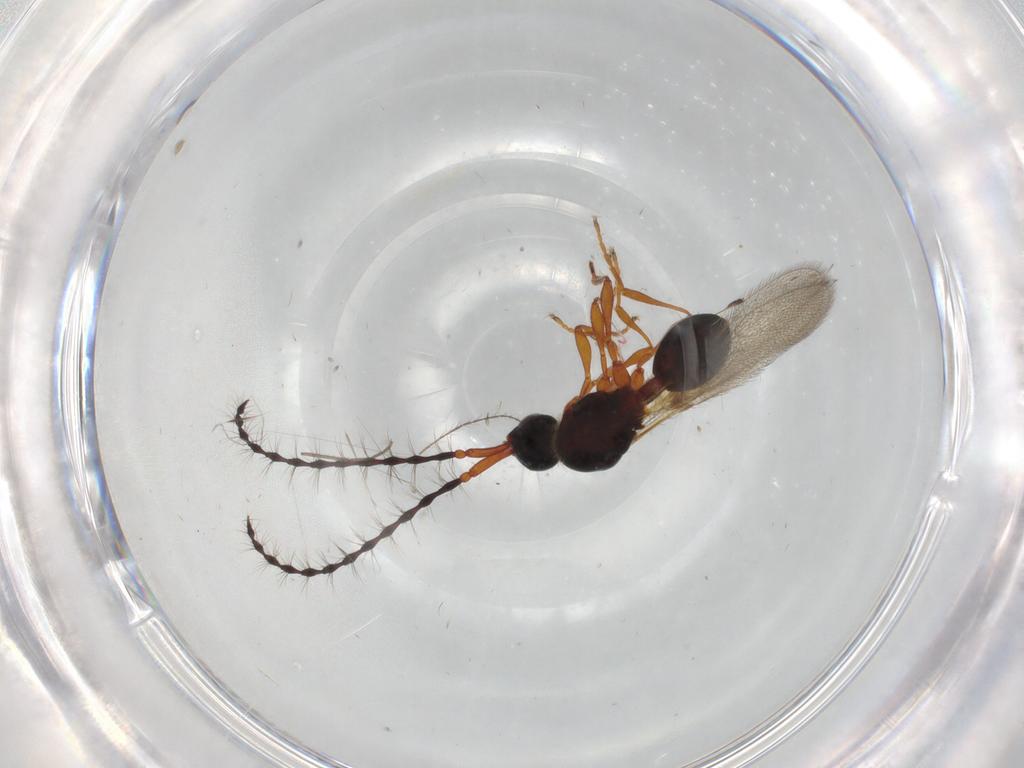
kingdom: Animalia
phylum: Arthropoda
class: Insecta
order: Hymenoptera
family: Diapriidae
